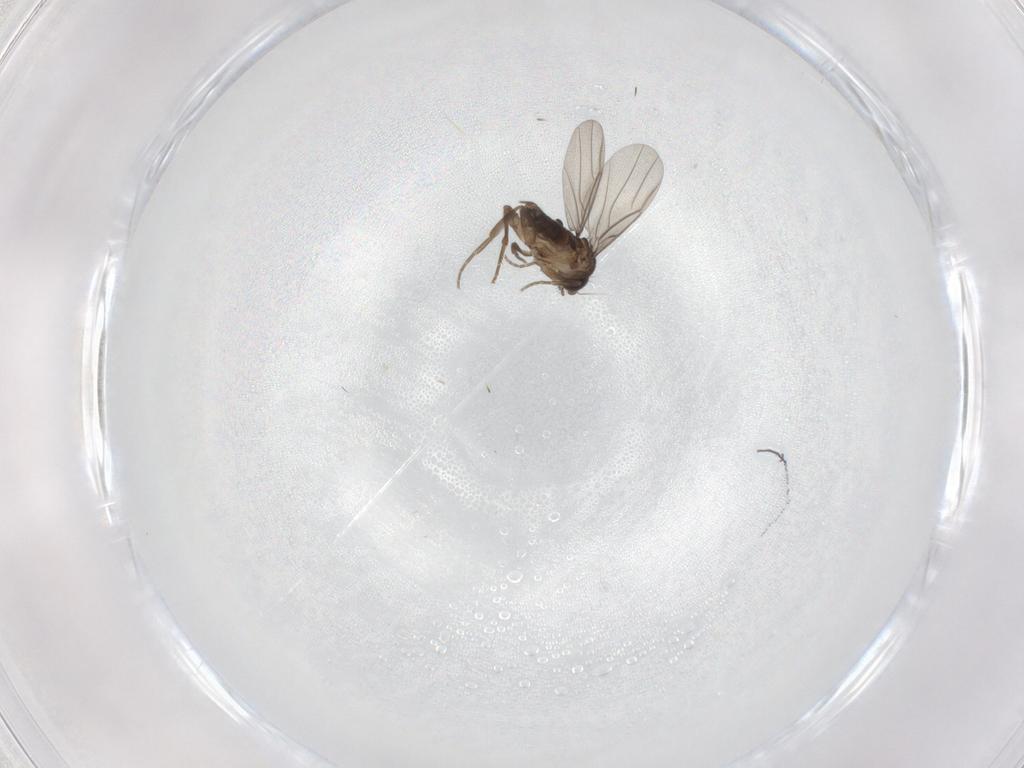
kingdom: Animalia
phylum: Arthropoda
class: Insecta
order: Diptera
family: Phoridae
